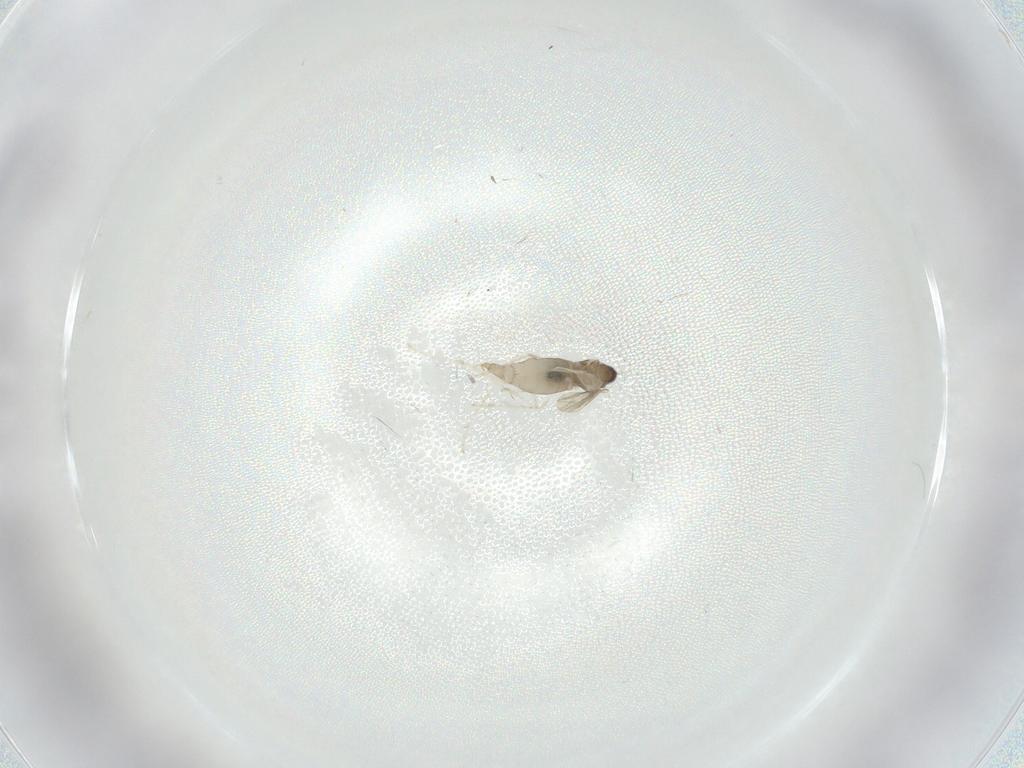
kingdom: Animalia
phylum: Arthropoda
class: Insecta
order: Diptera
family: Cecidomyiidae
